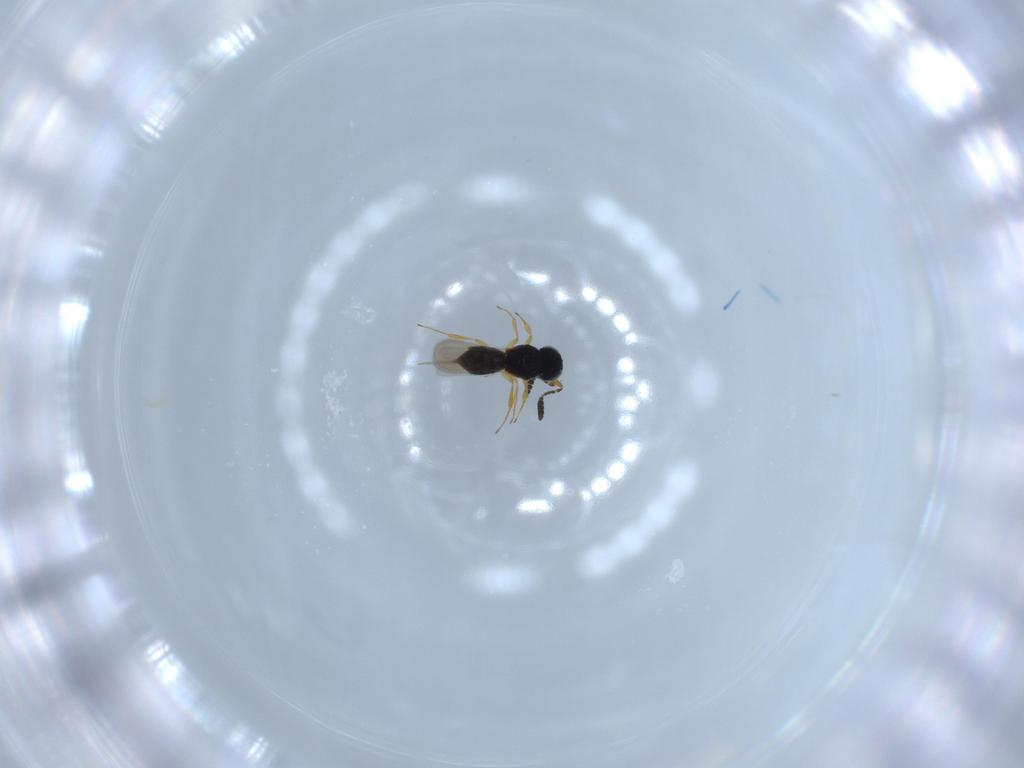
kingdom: Animalia
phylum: Arthropoda
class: Insecta
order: Hymenoptera
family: Scelionidae
